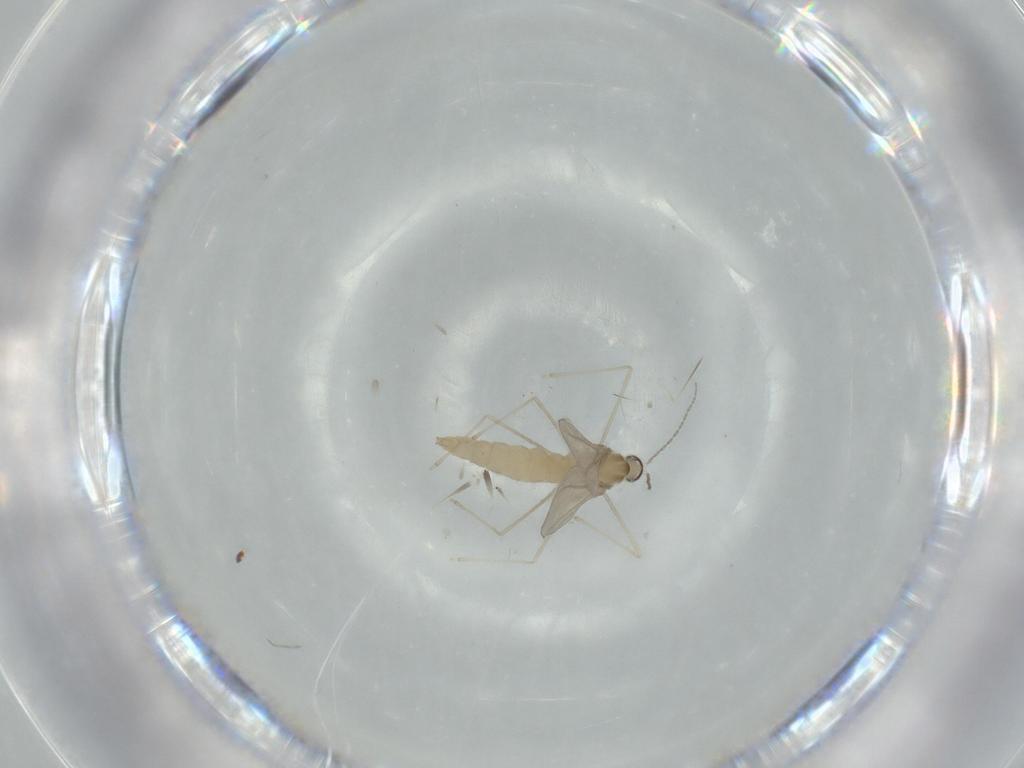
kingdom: Animalia
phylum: Arthropoda
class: Insecta
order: Diptera
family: Cecidomyiidae
